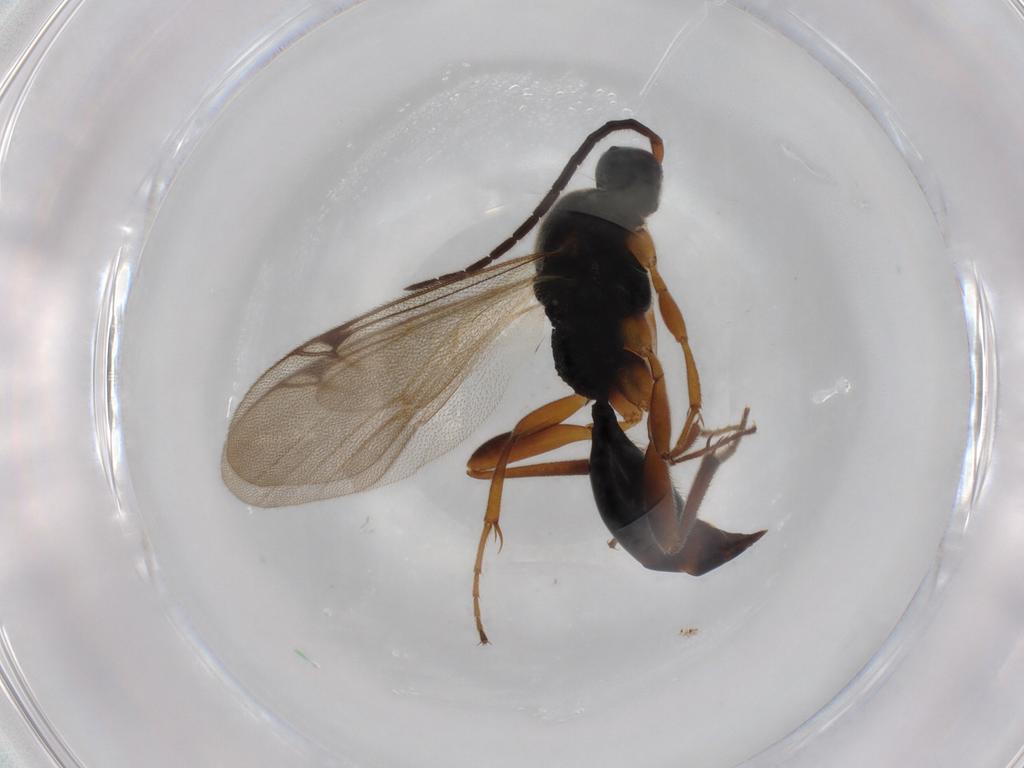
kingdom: Animalia
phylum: Arthropoda
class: Insecta
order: Hymenoptera
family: Proctotrupidae
